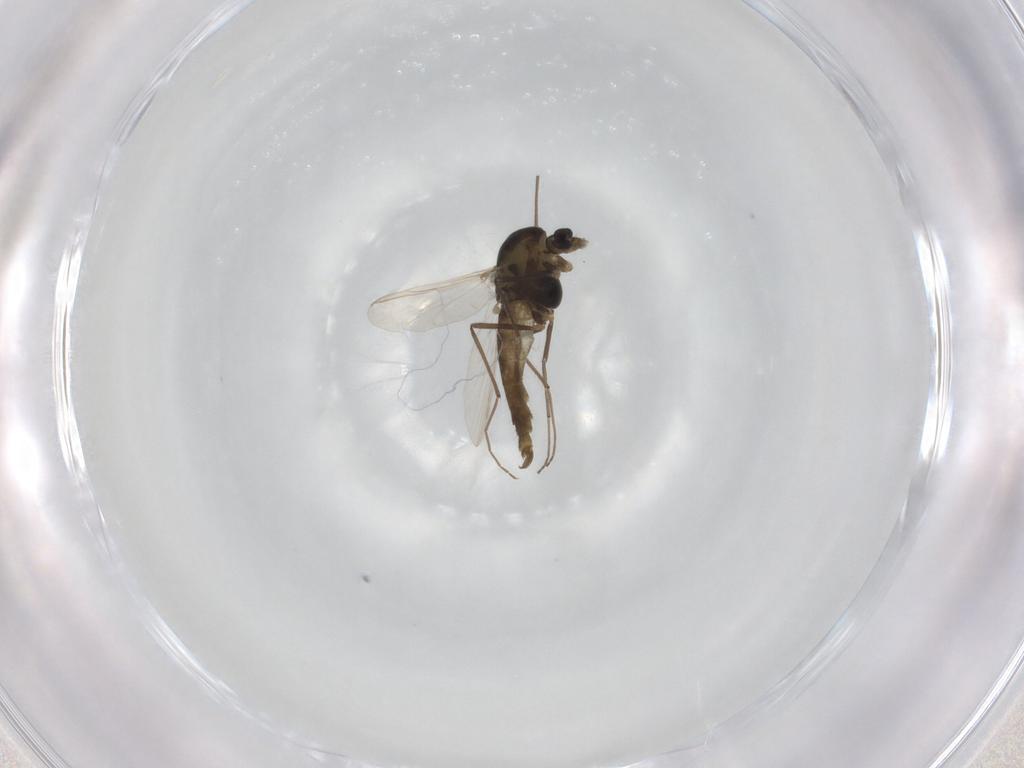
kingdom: Animalia
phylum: Arthropoda
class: Insecta
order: Diptera
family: Chironomidae
